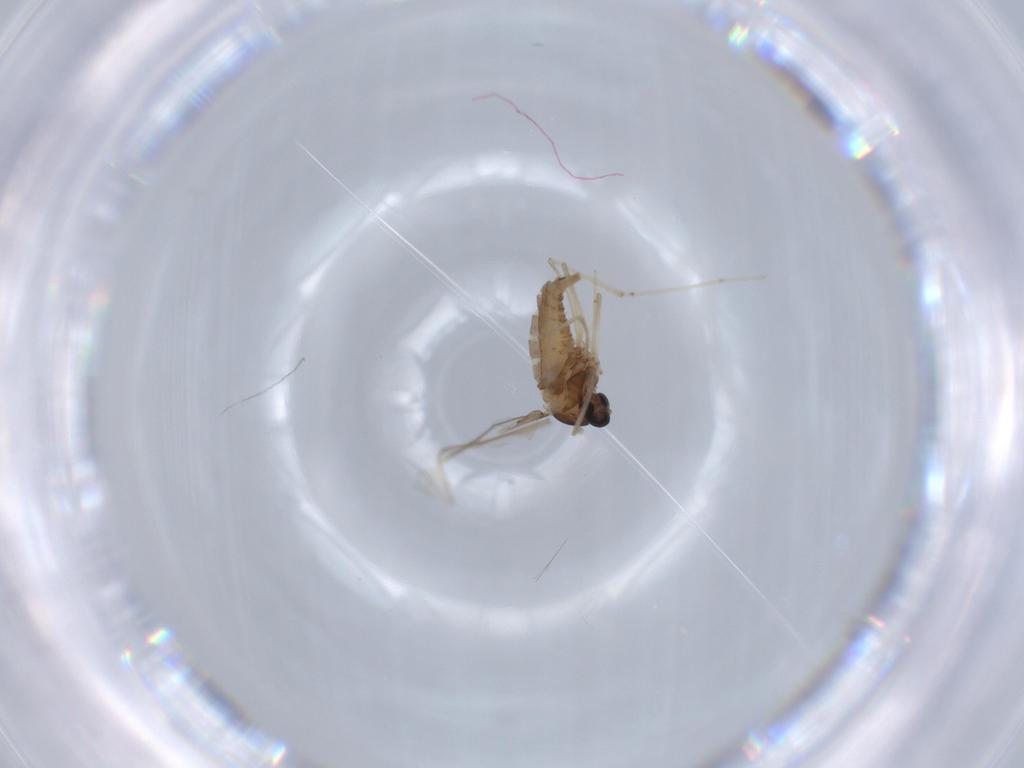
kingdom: Animalia
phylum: Arthropoda
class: Insecta
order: Diptera
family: Cecidomyiidae
